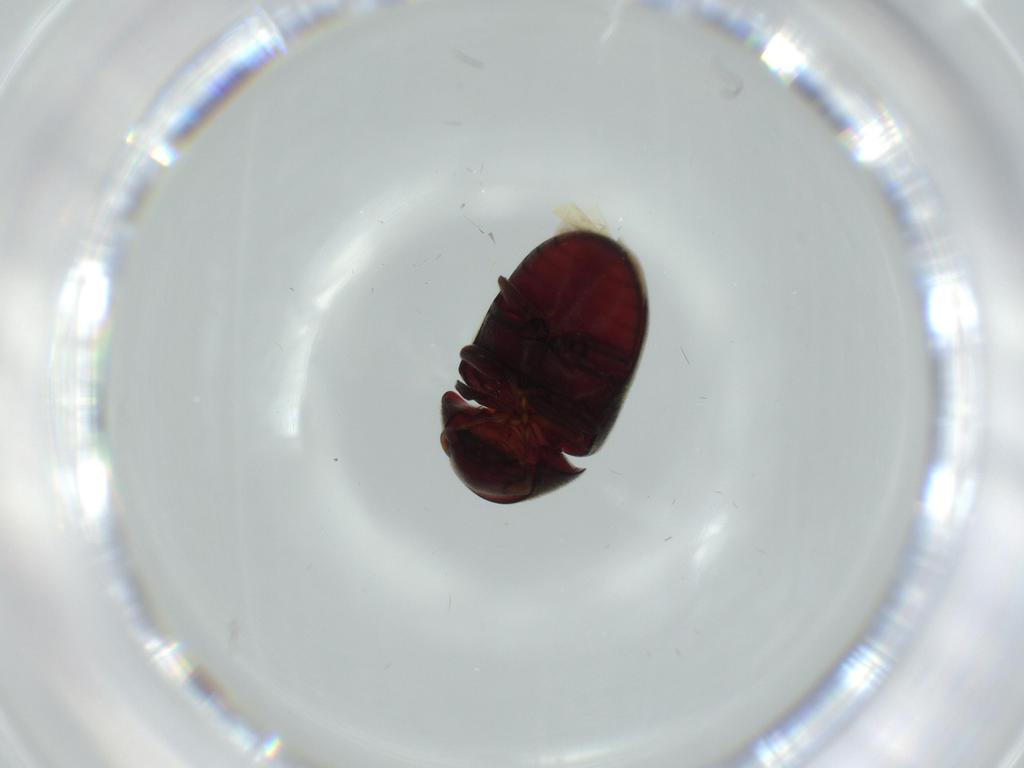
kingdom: Animalia
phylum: Arthropoda
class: Insecta
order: Coleoptera
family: Ptinidae
